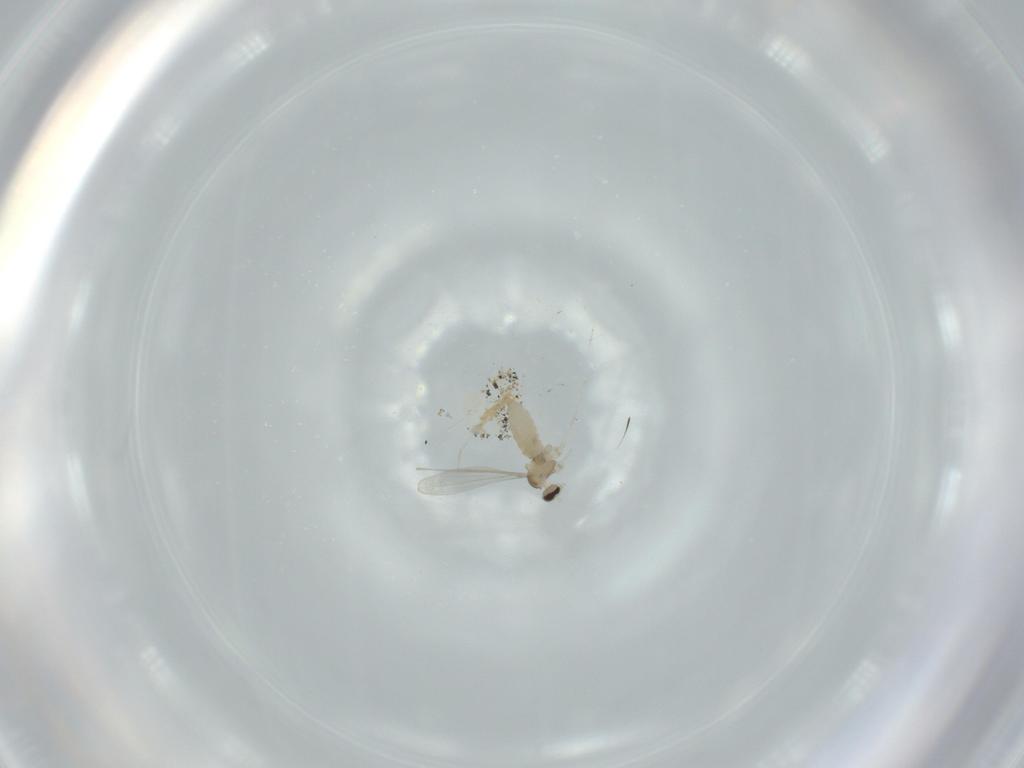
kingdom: Animalia
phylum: Arthropoda
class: Insecta
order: Diptera
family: Sciaridae
